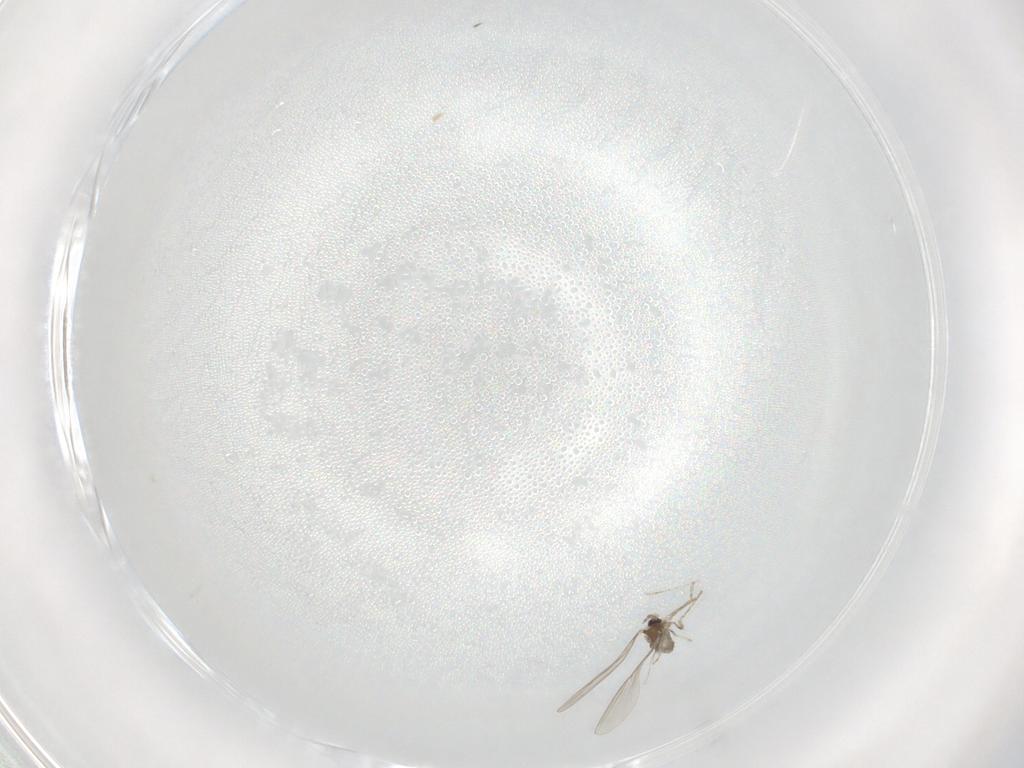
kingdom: Animalia
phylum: Arthropoda
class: Insecta
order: Diptera
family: Cecidomyiidae
